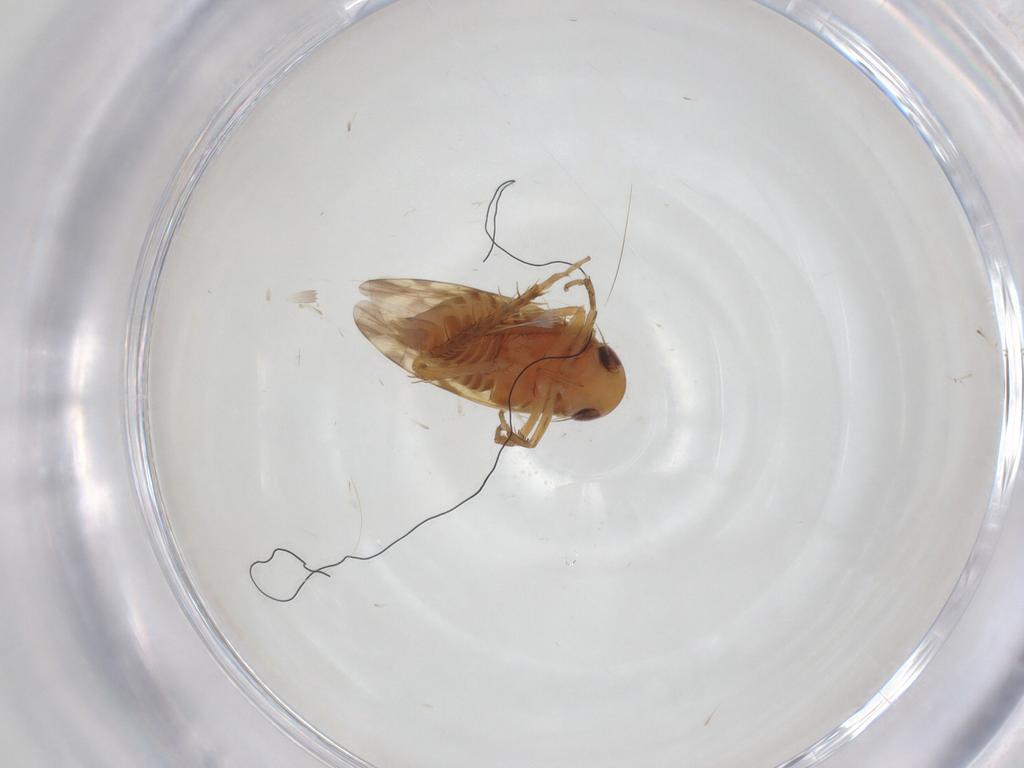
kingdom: Animalia
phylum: Arthropoda
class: Insecta
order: Hemiptera
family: Cicadellidae
